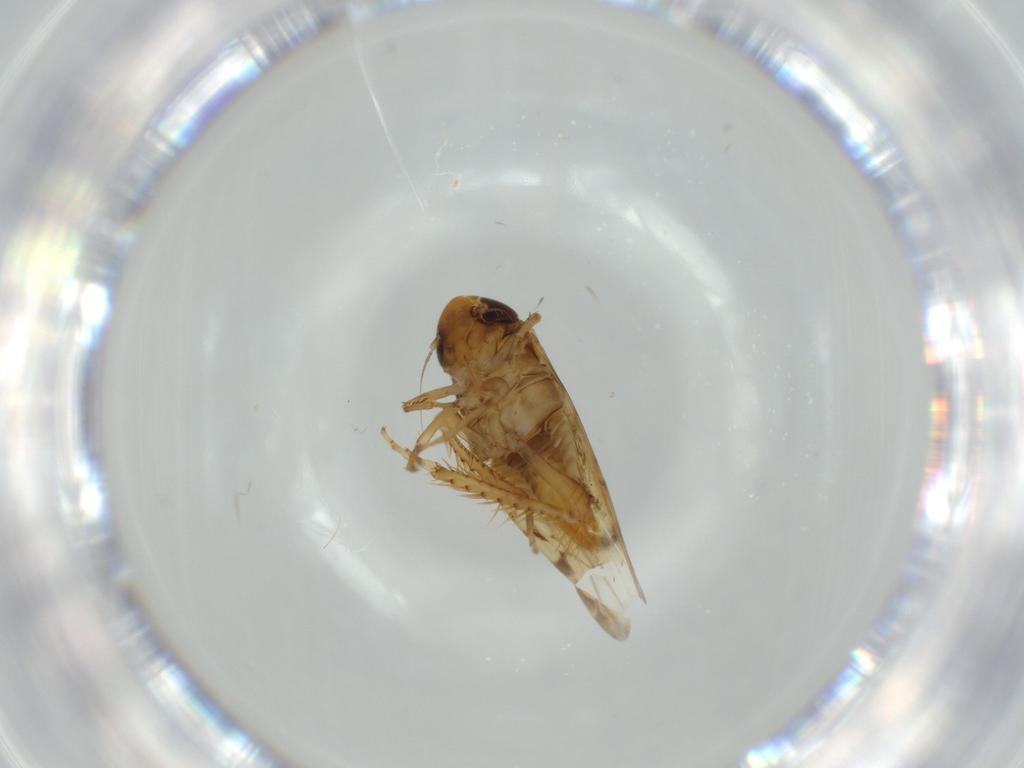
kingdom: Animalia
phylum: Arthropoda
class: Insecta
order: Hemiptera
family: Cicadellidae
